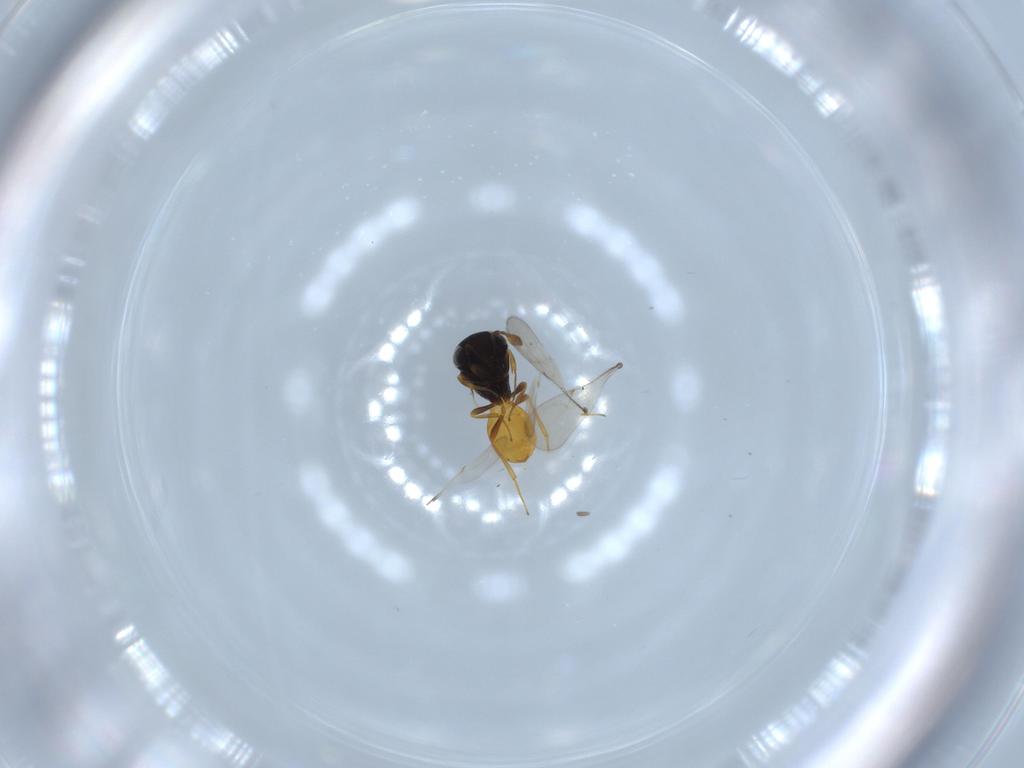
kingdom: Animalia
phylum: Arthropoda
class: Insecta
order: Hymenoptera
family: Scelionidae
